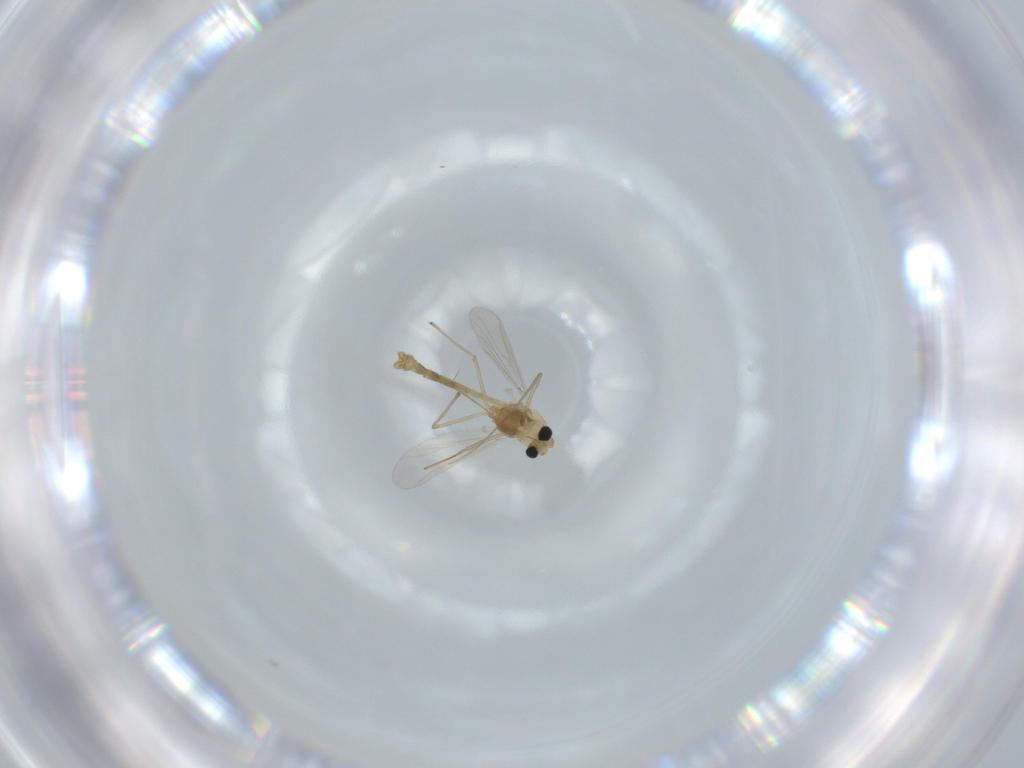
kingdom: Animalia
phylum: Arthropoda
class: Insecta
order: Diptera
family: Chironomidae
